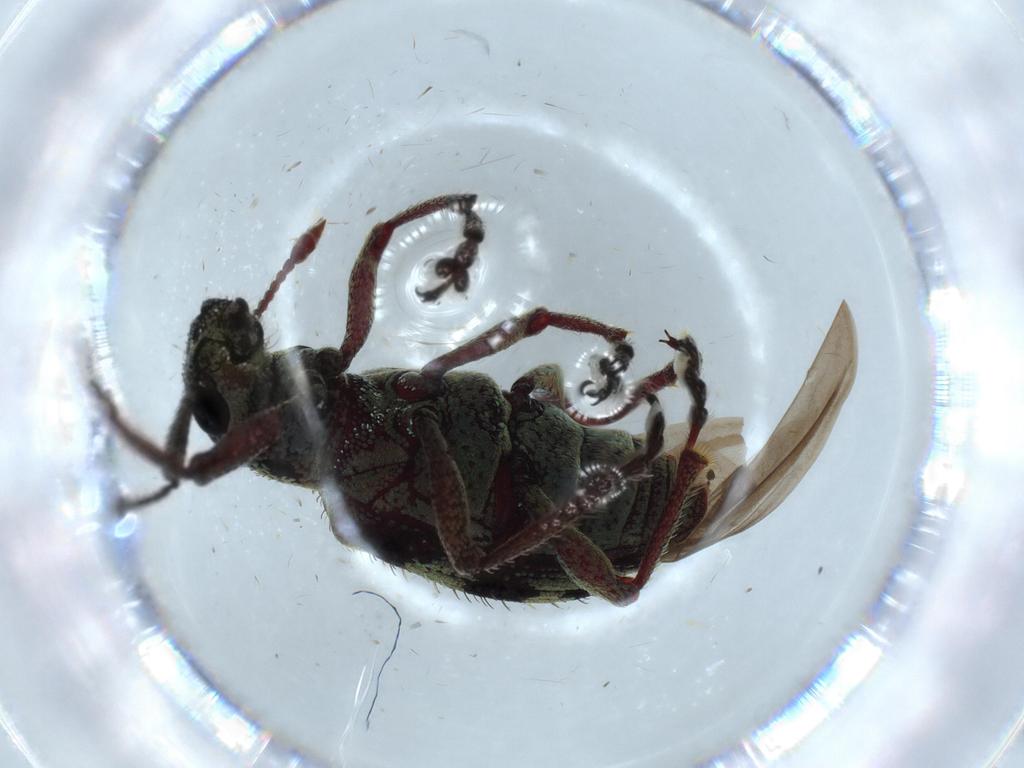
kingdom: Animalia
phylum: Arthropoda
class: Insecta
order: Coleoptera
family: Curculionidae
